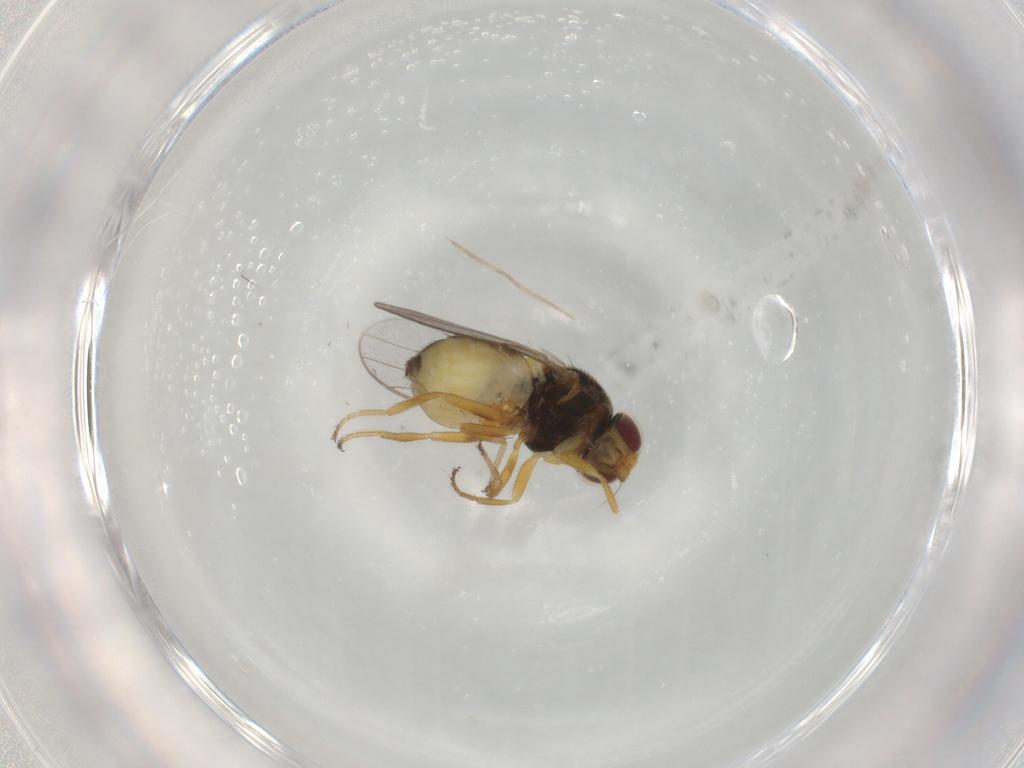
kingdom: Animalia
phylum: Arthropoda
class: Insecta
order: Diptera
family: Chloropidae
